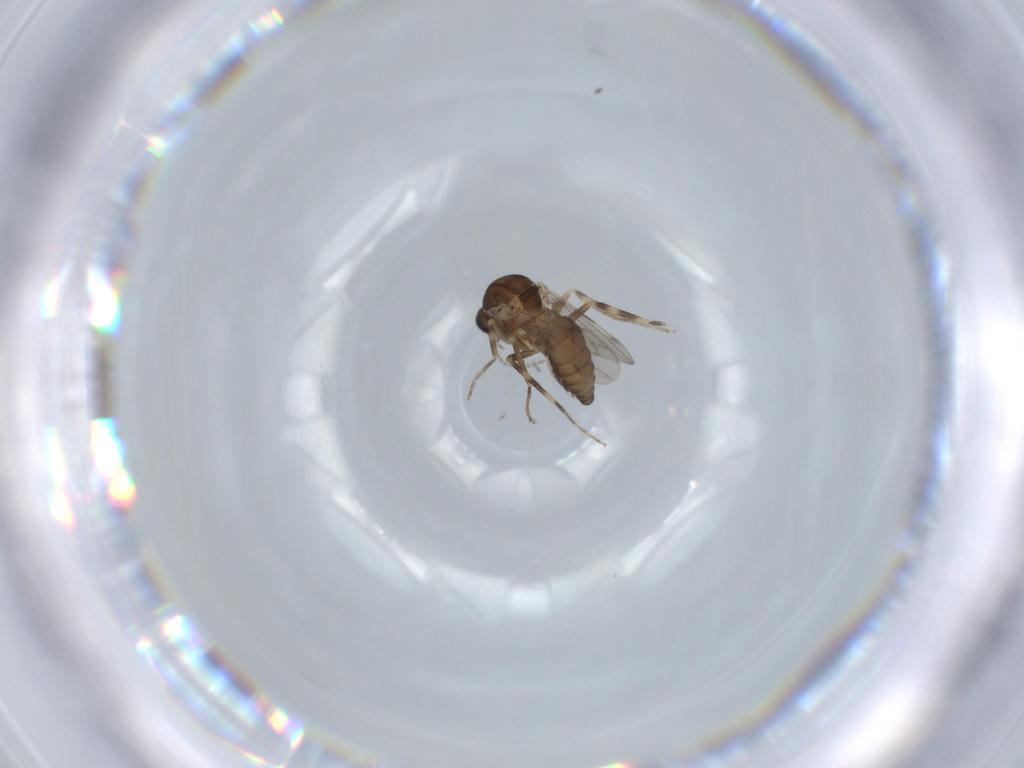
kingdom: Animalia
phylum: Arthropoda
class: Insecta
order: Diptera
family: Ceratopogonidae
